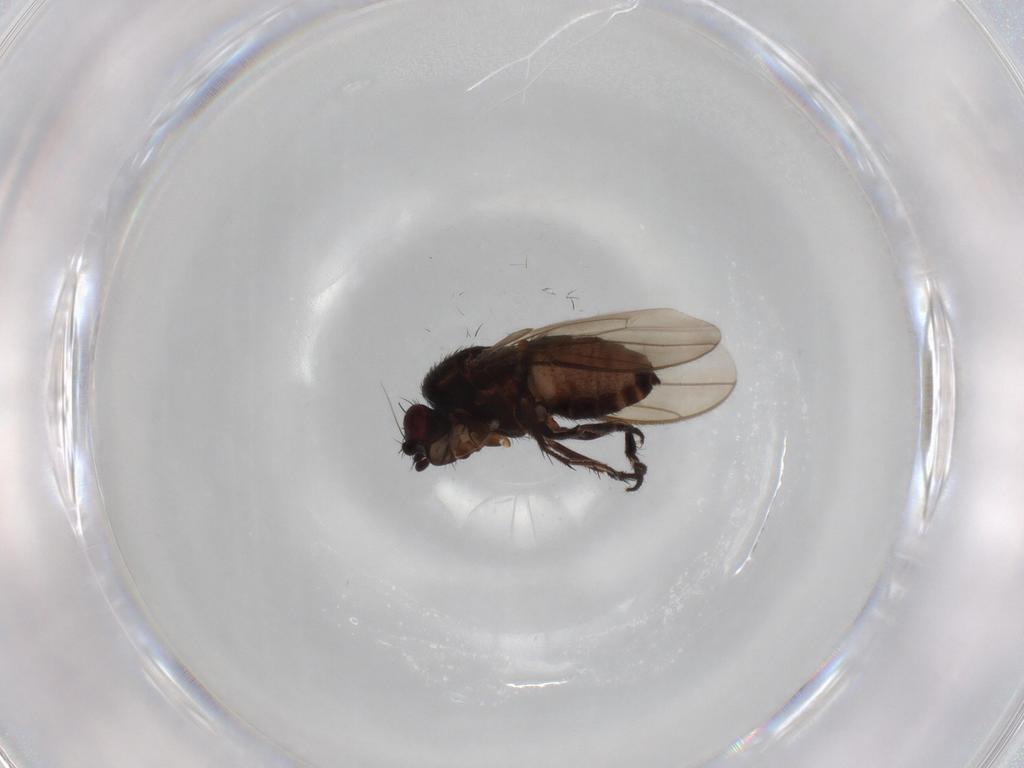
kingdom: Animalia
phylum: Arthropoda
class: Insecta
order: Diptera
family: Sphaeroceridae
